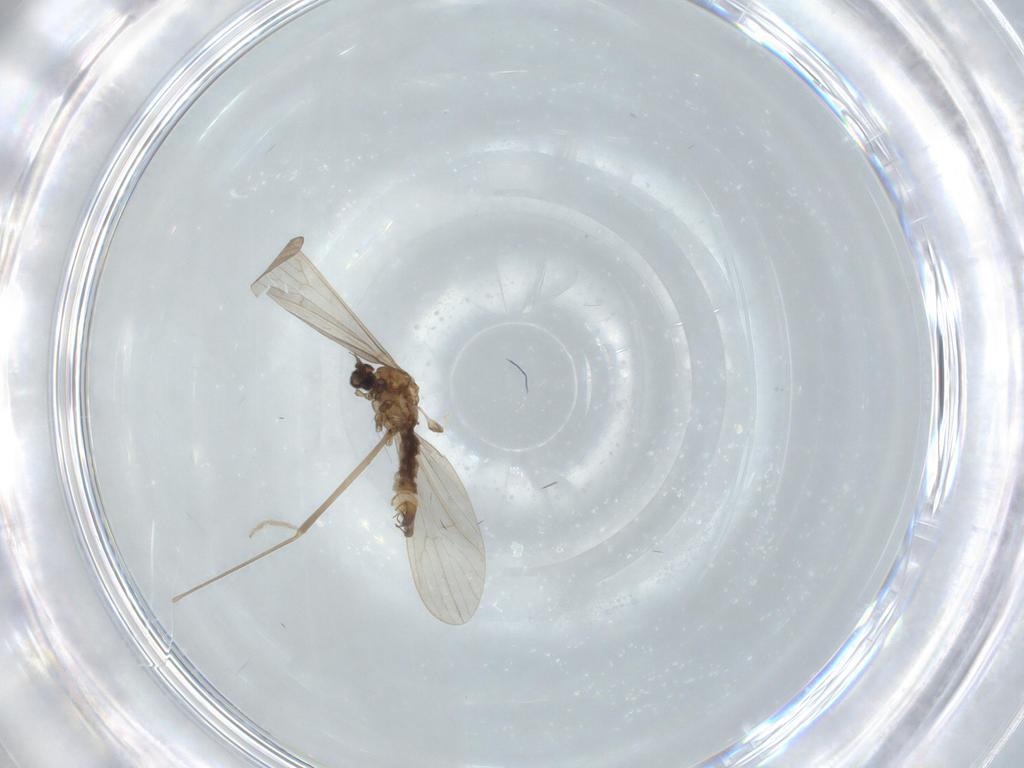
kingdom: Animalia
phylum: Arthropoda
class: Insecta
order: Diptera
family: Limoniidae
